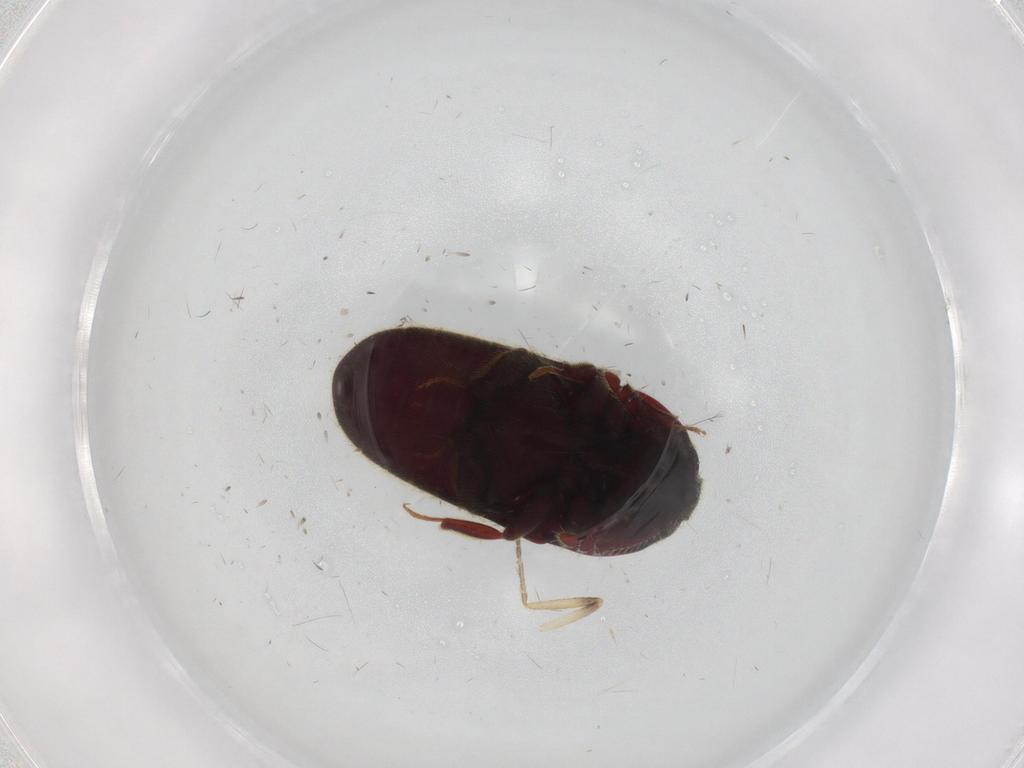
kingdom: Animalia
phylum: Arthropoda
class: Insecta
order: Coleoptera
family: Throscidae
